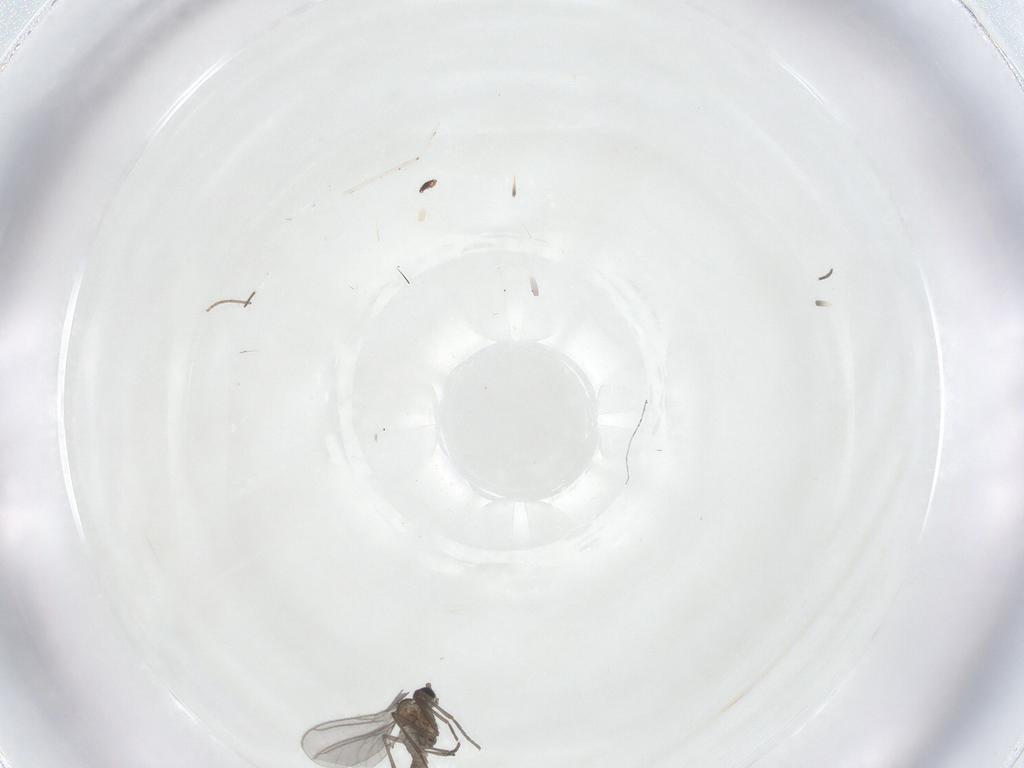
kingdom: Animalia
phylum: Arthropoda
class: Insecta
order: Diptera
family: Sciaridae
